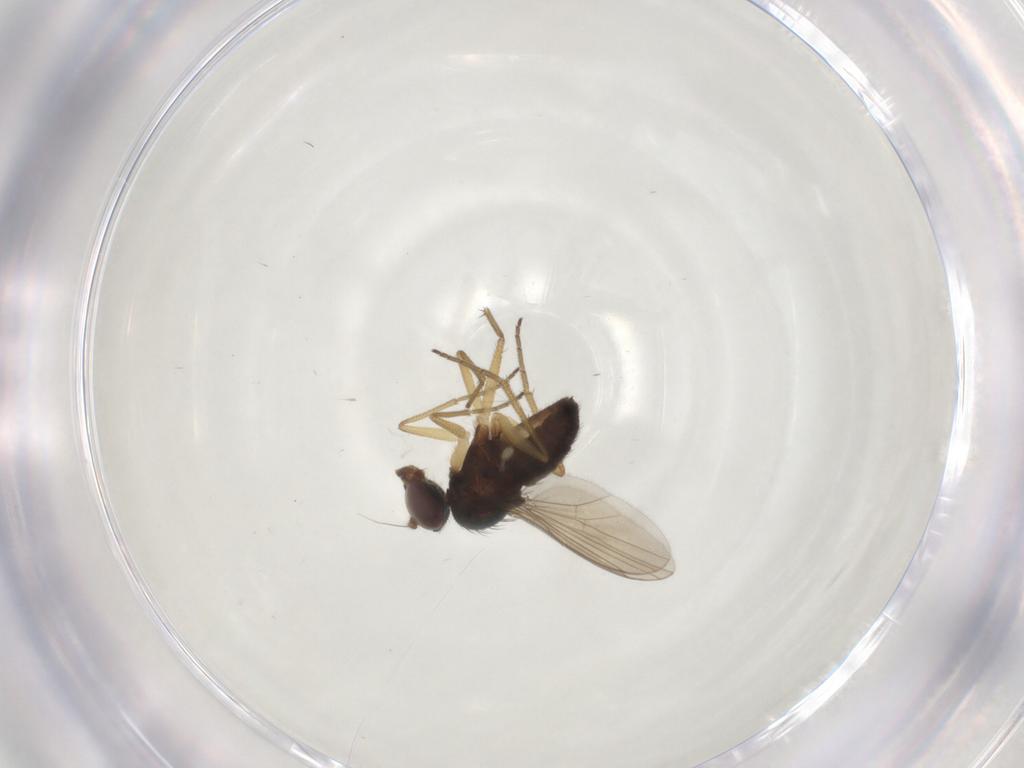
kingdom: Animalia
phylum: Arthropoda
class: Insecta
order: Diptera
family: Dolichopodidae
